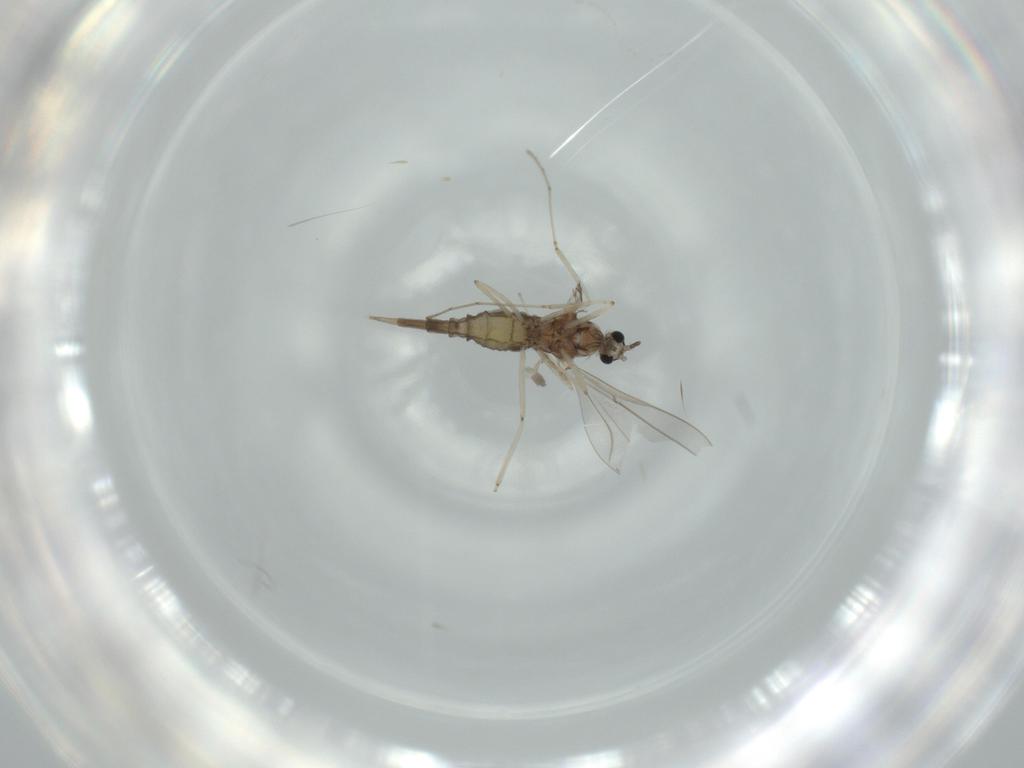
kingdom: Animalia
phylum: Arthropoda
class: Insecta
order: Diptera
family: Cecidomyiidae
